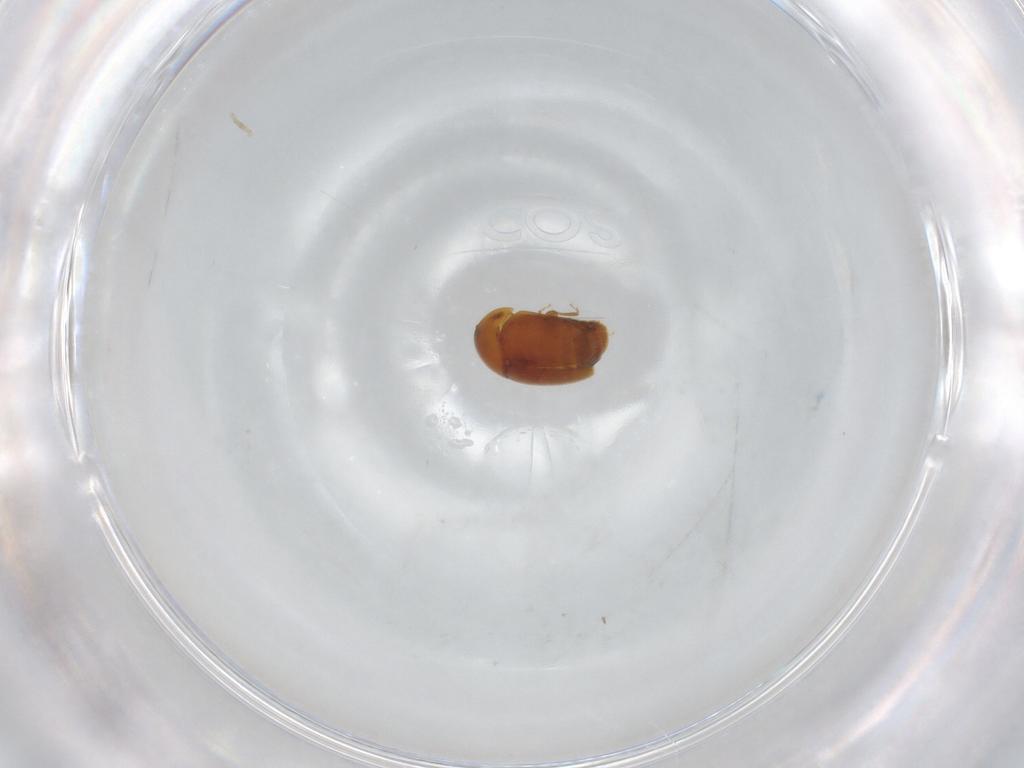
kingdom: Animalia
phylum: Arthropoda
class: Insecta
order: Coleoptera
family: Corylophidae
